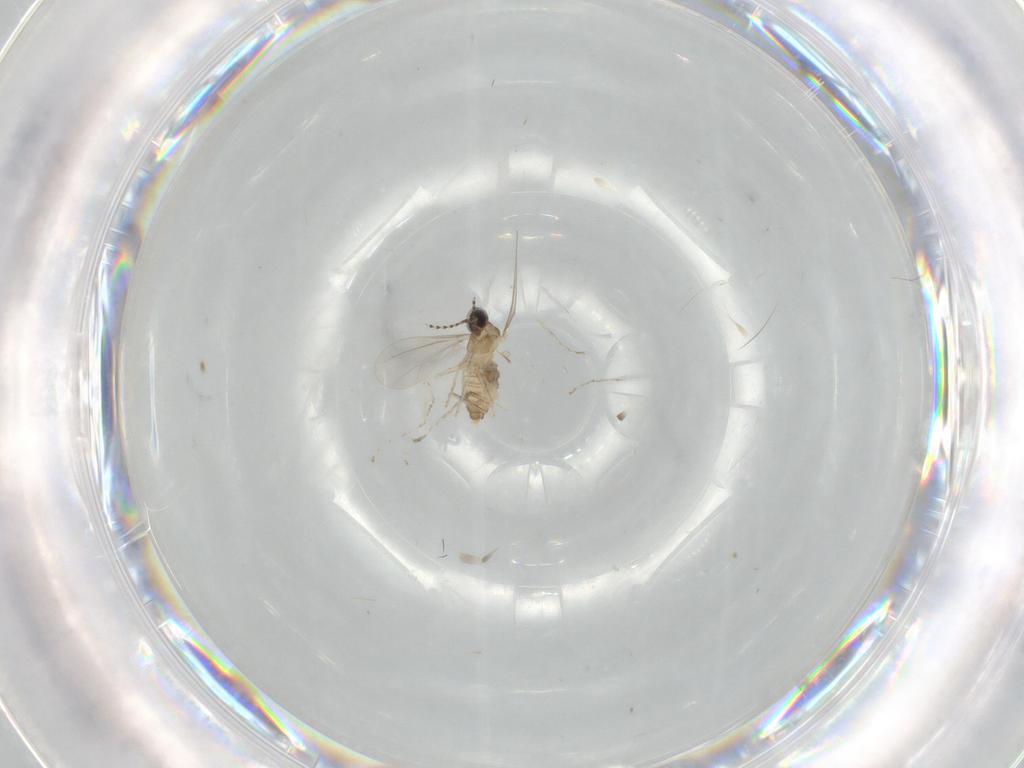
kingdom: Animalia
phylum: Arthropoda
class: Insecta
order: Diptera
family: Cecidomyiidae
